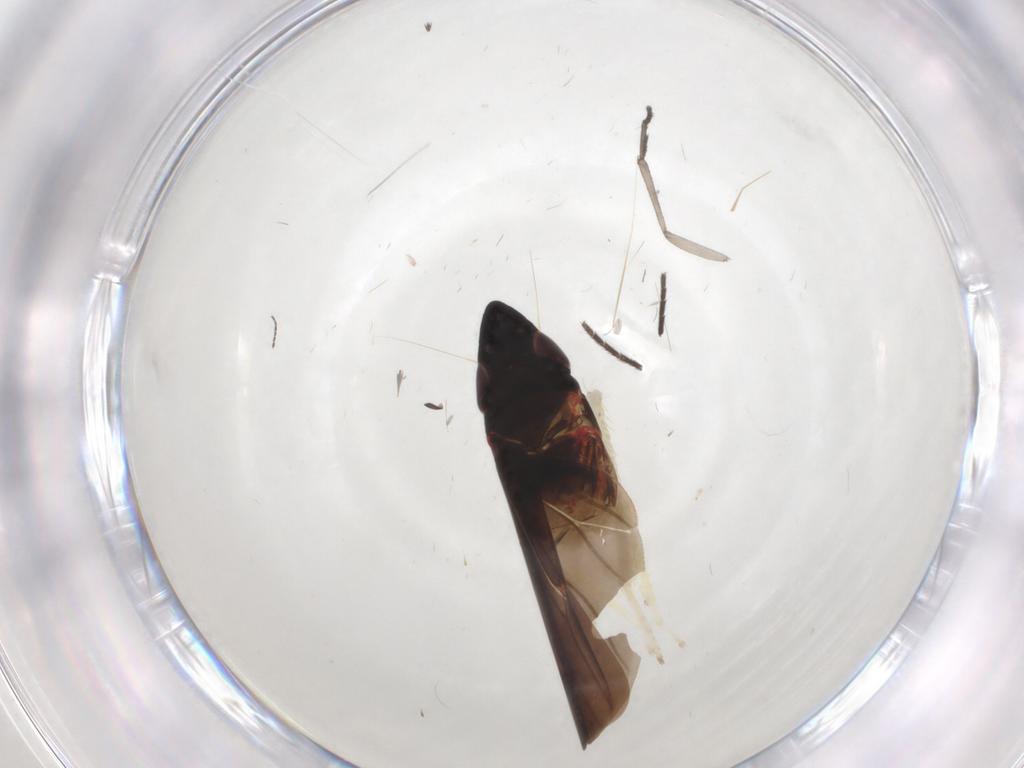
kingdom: Animalia
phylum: Arthropoda
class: Insecta
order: Hemiptera
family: Cicadellidae
